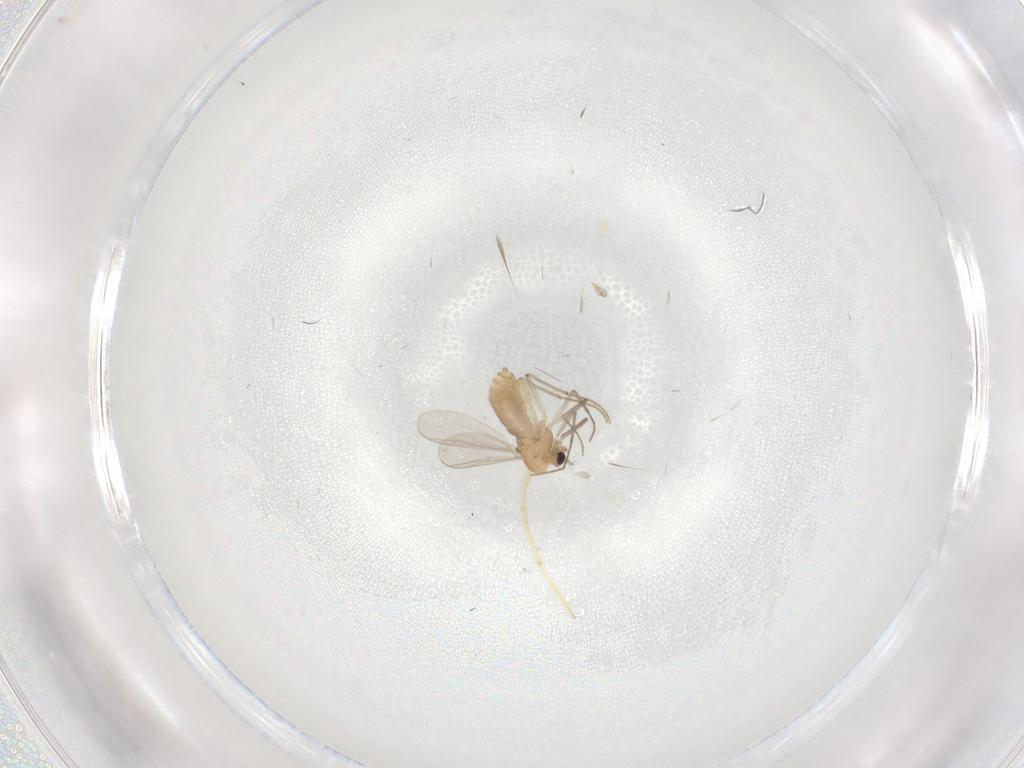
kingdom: Animalia
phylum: Arthropoda
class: Insecta
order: Diptera
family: Chironomidae
